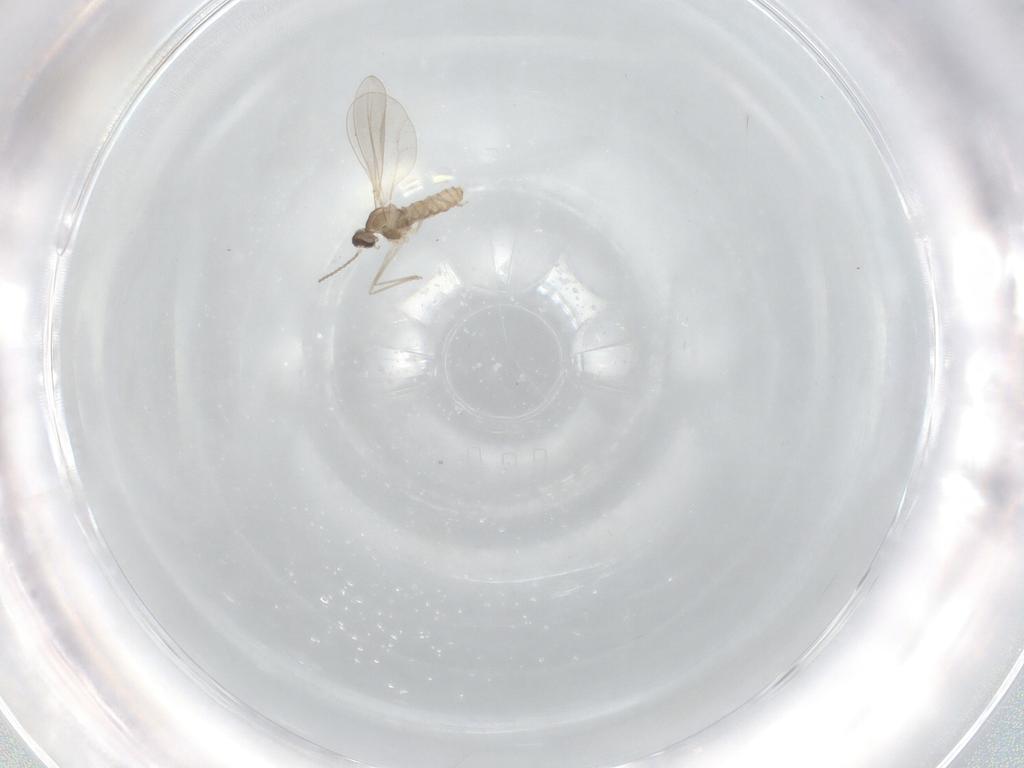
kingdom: Animalia
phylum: Arthropoda
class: Insecta
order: Diptera
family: Cecidomyiidae
